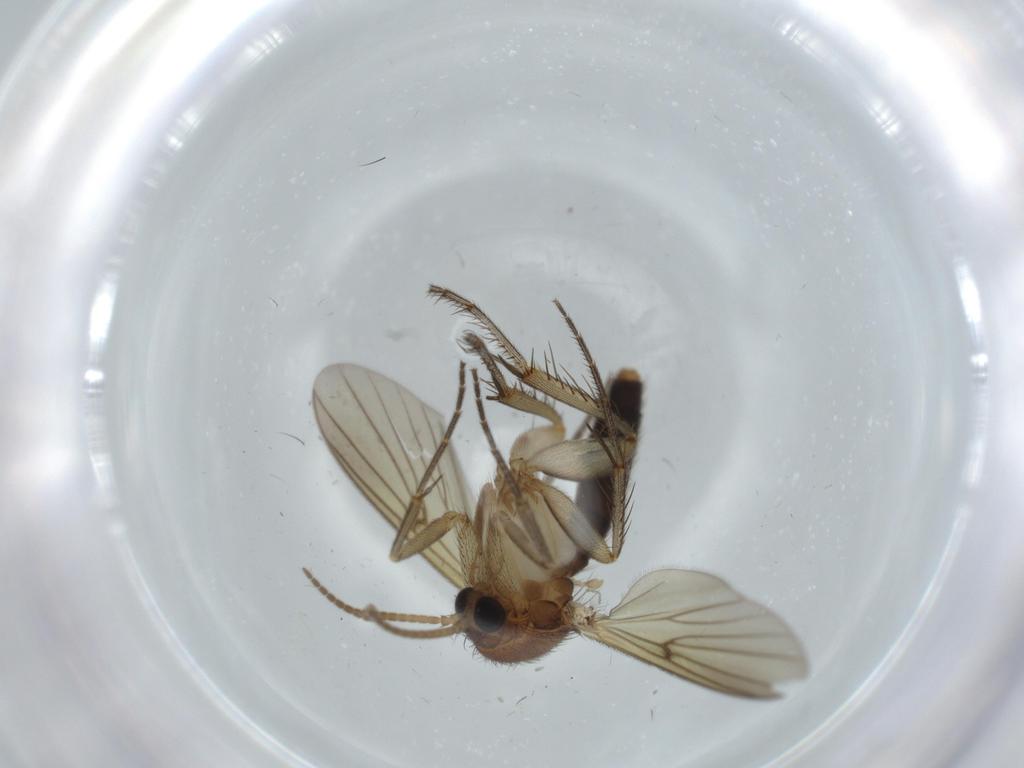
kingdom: Animalia
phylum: Arthropoda
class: Insecta
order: Diptera
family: Mycetophilidae
